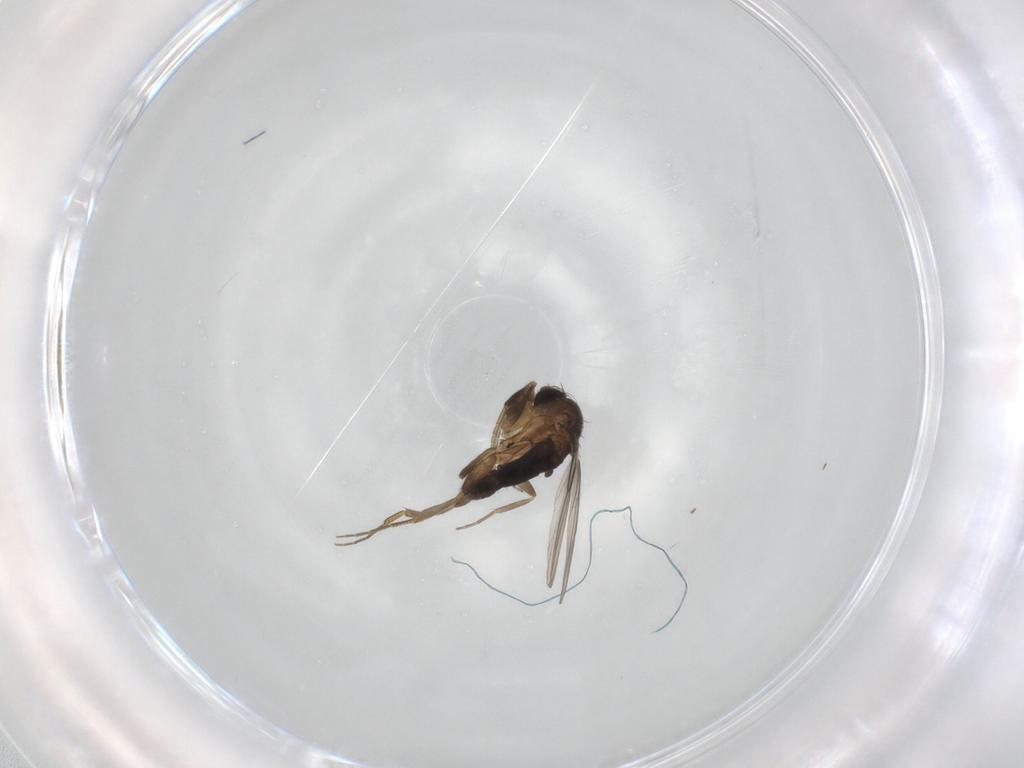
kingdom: Animalia
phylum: Arthropoda
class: Insecta
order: Diptera
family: Phoridae
